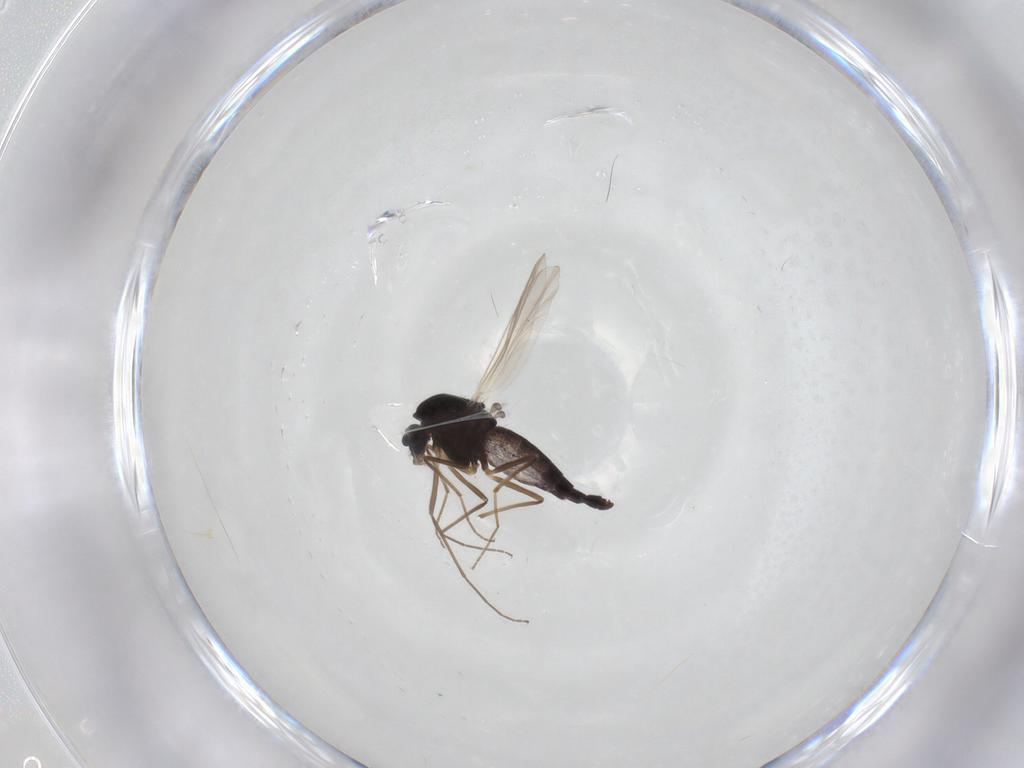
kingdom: Animalia
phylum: Arthropoda
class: Insecta
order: Diptera
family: Chironomidae
